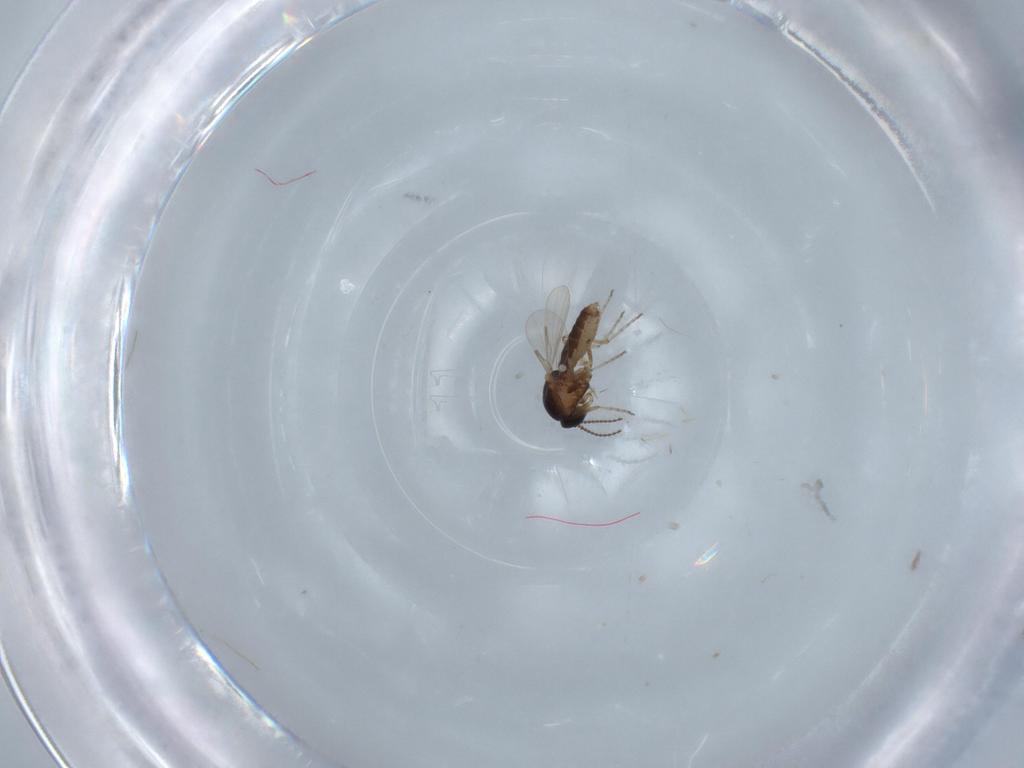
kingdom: Animalia
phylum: Arthropoda
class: Insecta
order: Diptera
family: Ceratopogonidae
